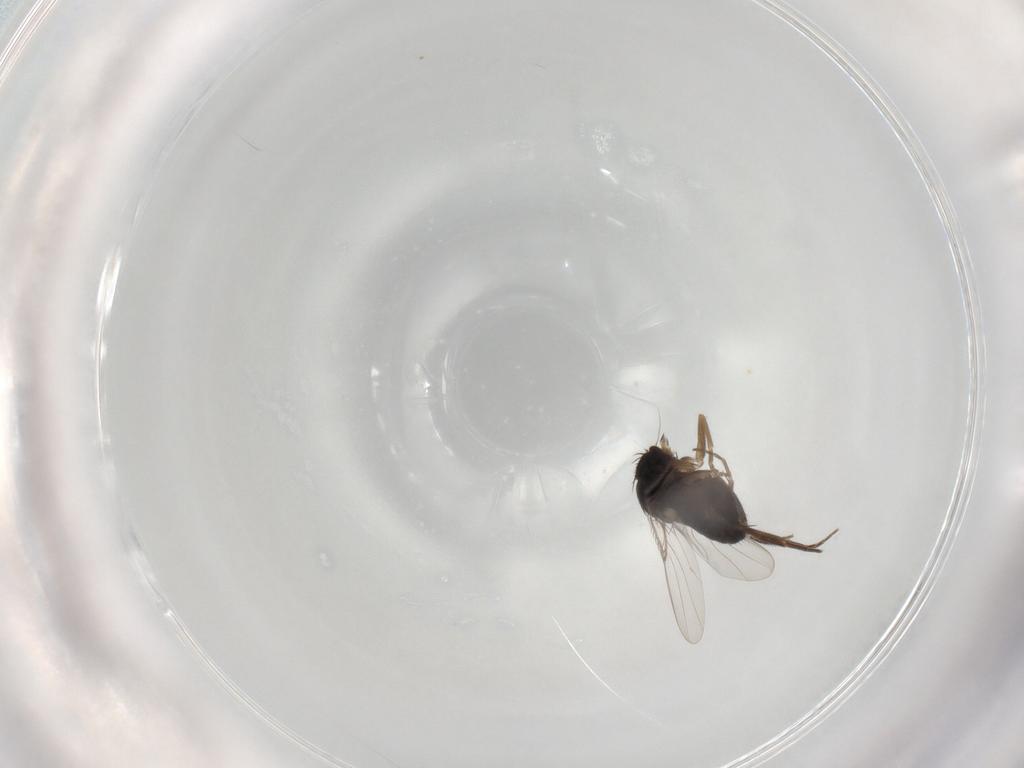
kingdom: Animalia
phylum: Arthropoda
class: Insecta
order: Diptera
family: Phoridae
